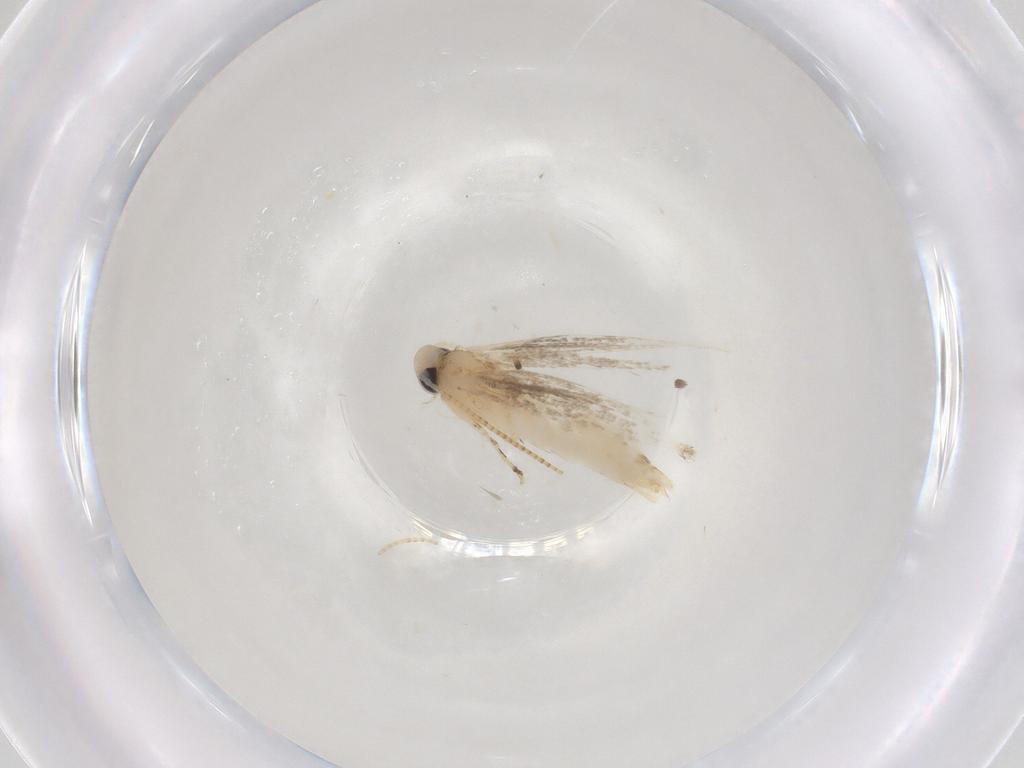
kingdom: Animalia
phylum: Arthropoda
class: Insecta
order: Lepidoptera
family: Gracillariidae
